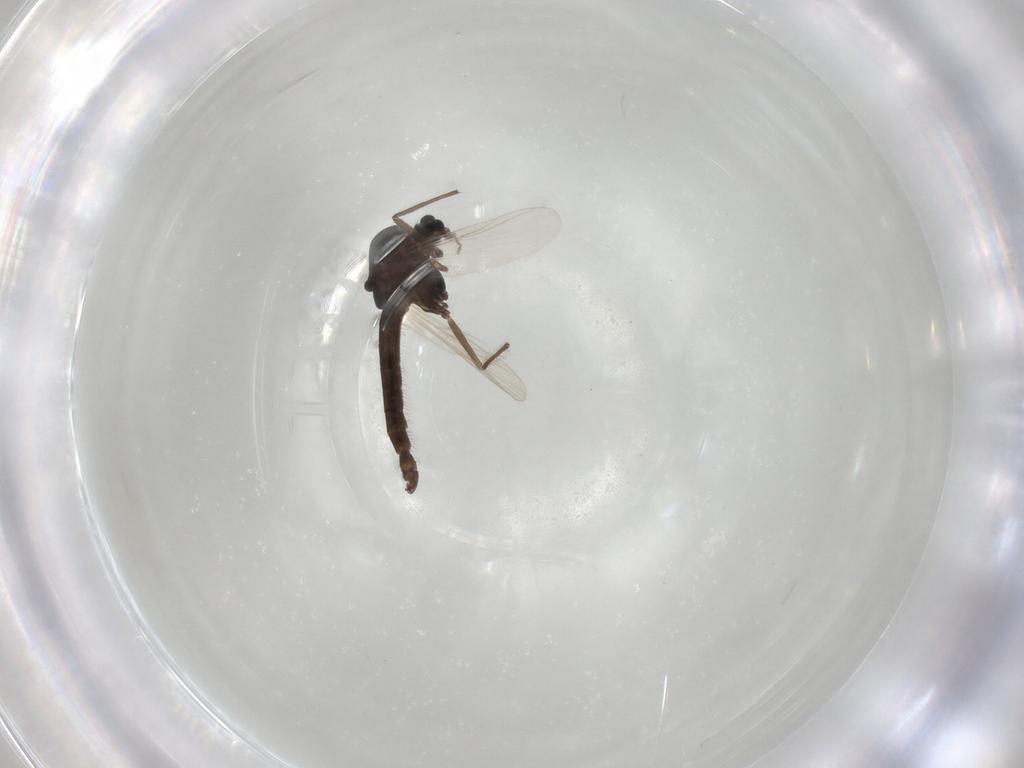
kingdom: Animalia
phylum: Arthropoda
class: Insecta
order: Diptera
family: Chironomidae
